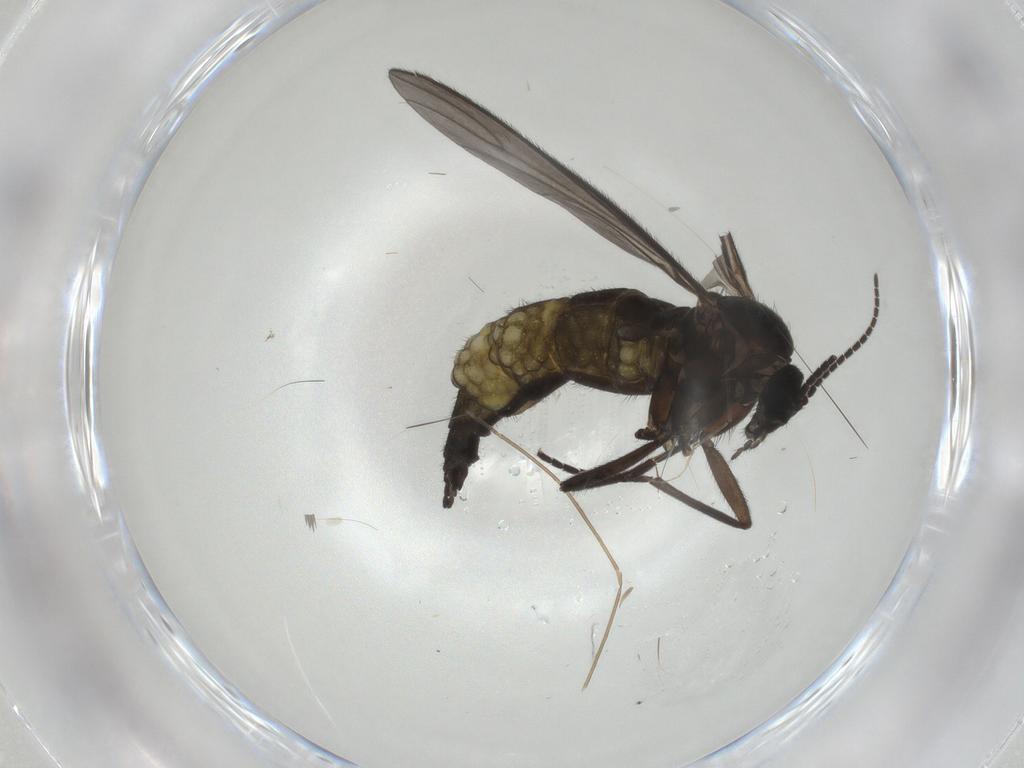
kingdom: Animalia
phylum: Arthropoda
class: Insecta
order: Diptera
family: Sciaridae
